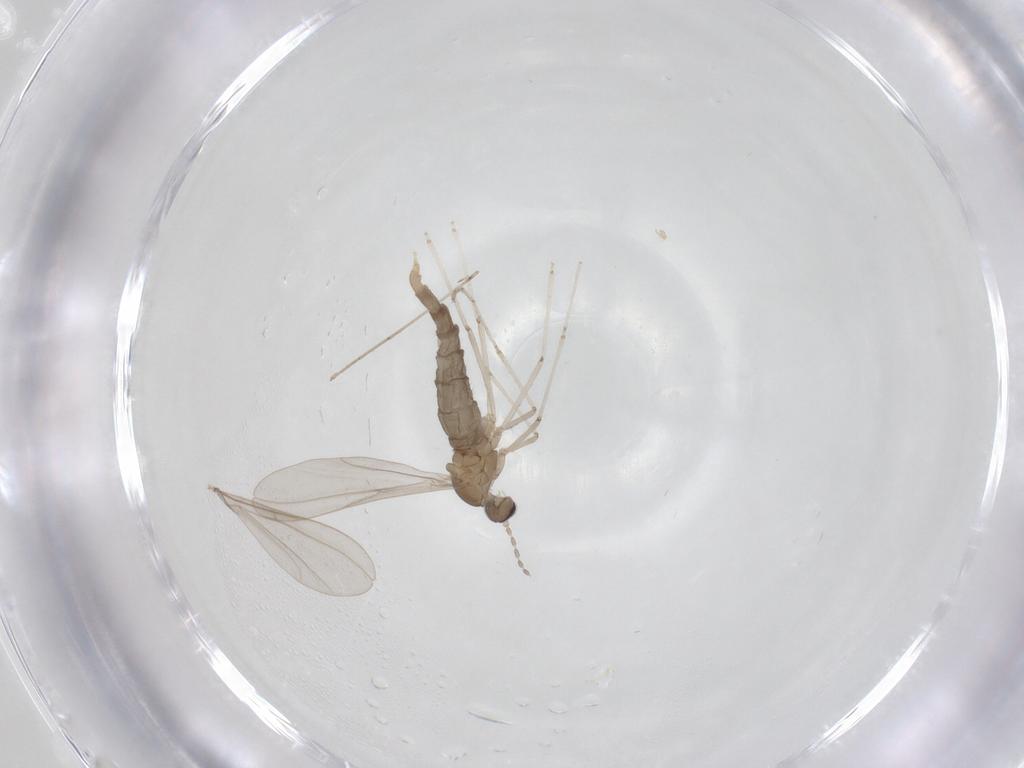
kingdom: Animalia
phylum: Arthropoda
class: Insecta
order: Diptera
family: Cecidomyiidae
